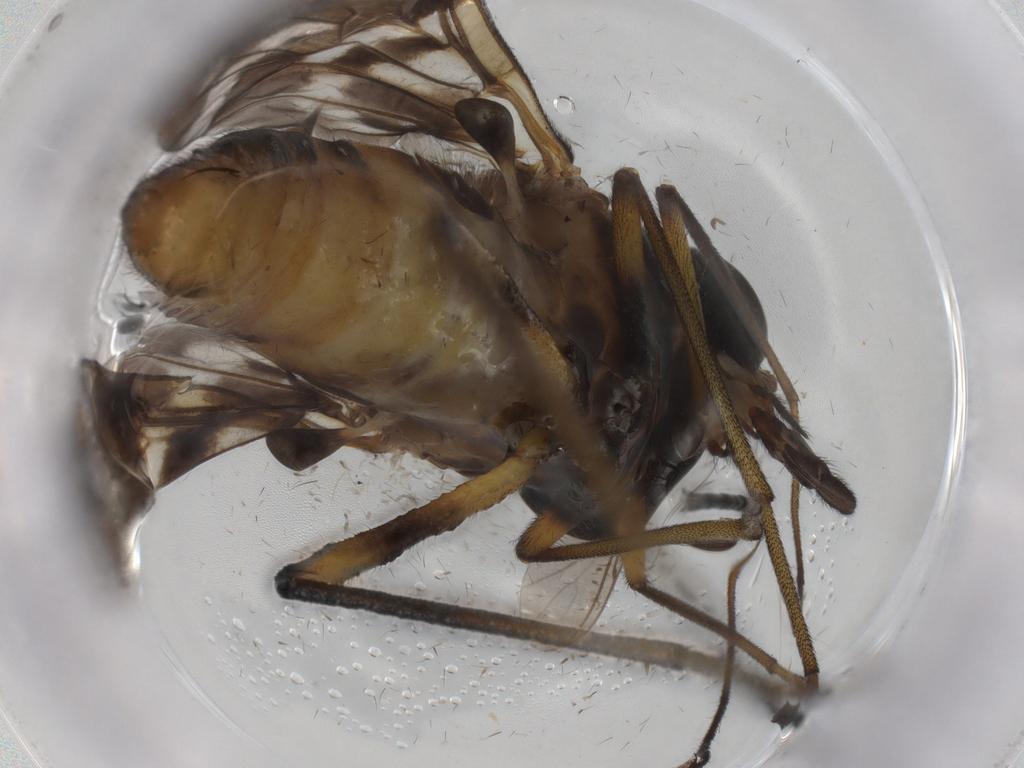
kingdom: Animalia
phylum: Arthropoda
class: Insecta
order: Diptera
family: Cecidomyiidae
